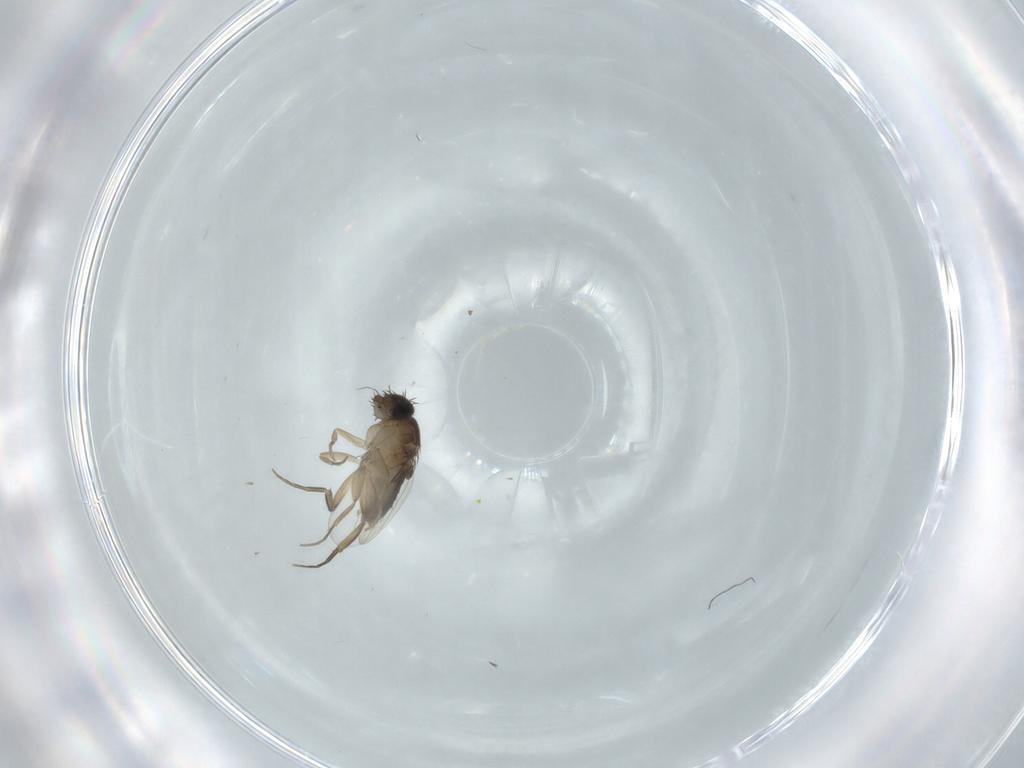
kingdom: Animalia
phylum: Arthropoda
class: Insecta
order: Diptera
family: Phoridae
